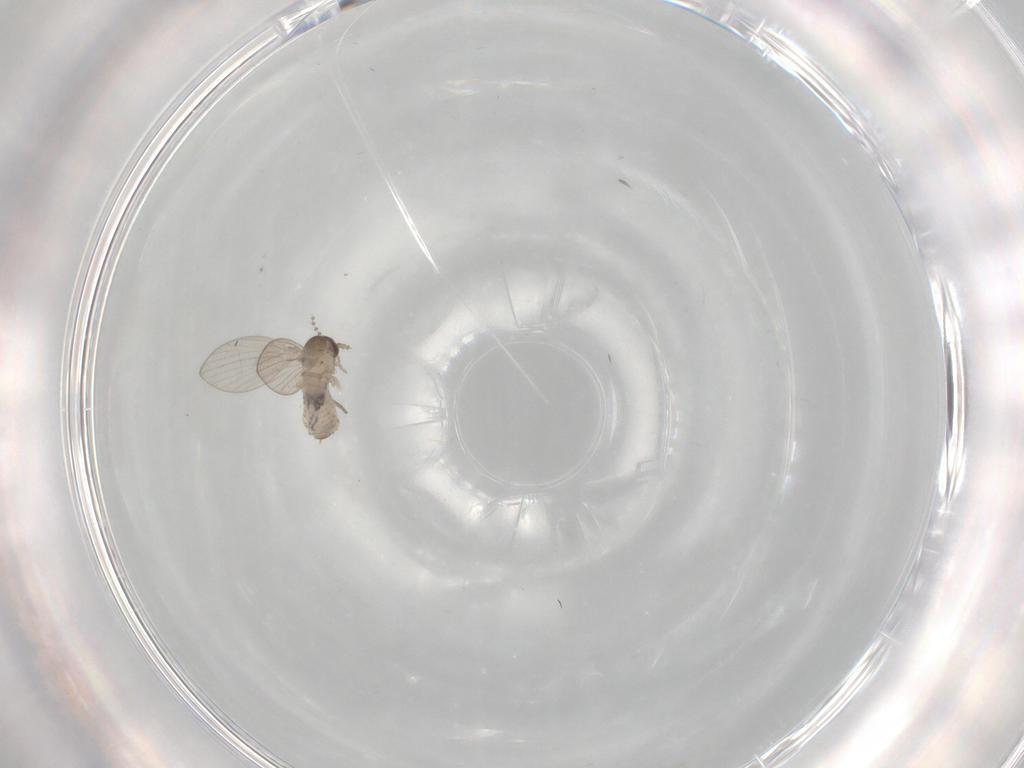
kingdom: Animalia
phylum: Arthropoda
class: Insecta
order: Diptera
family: Psychodidae
